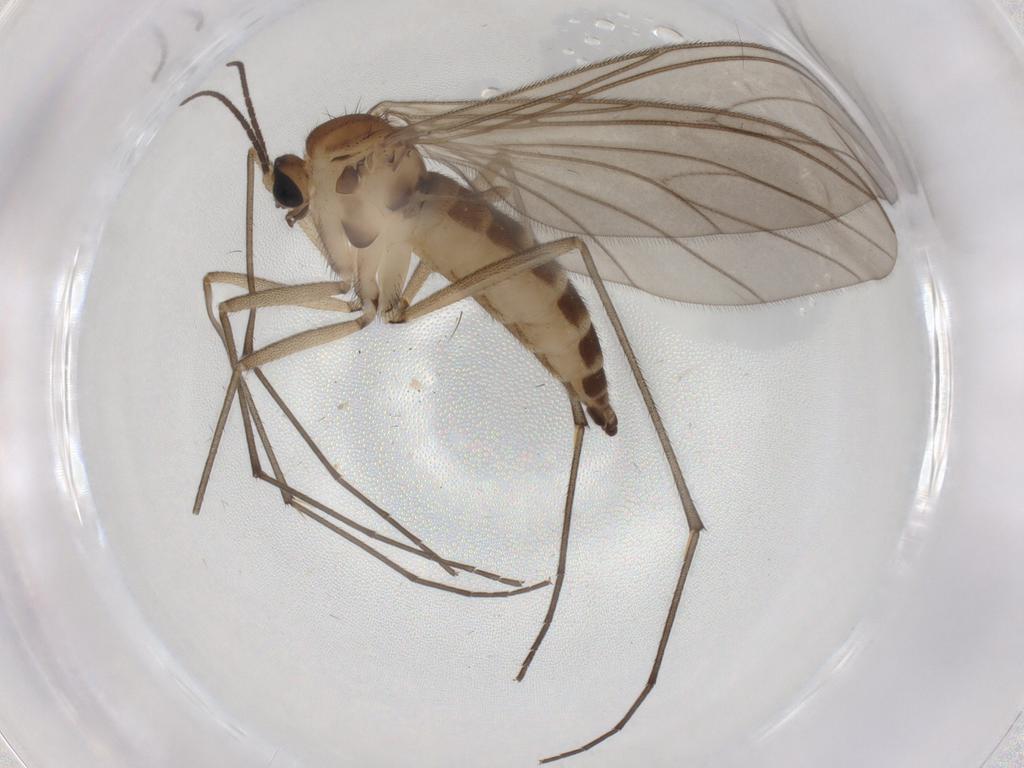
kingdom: Animalia
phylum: Arthropoda
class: Insecta
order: Diptera
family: Sciaridae
